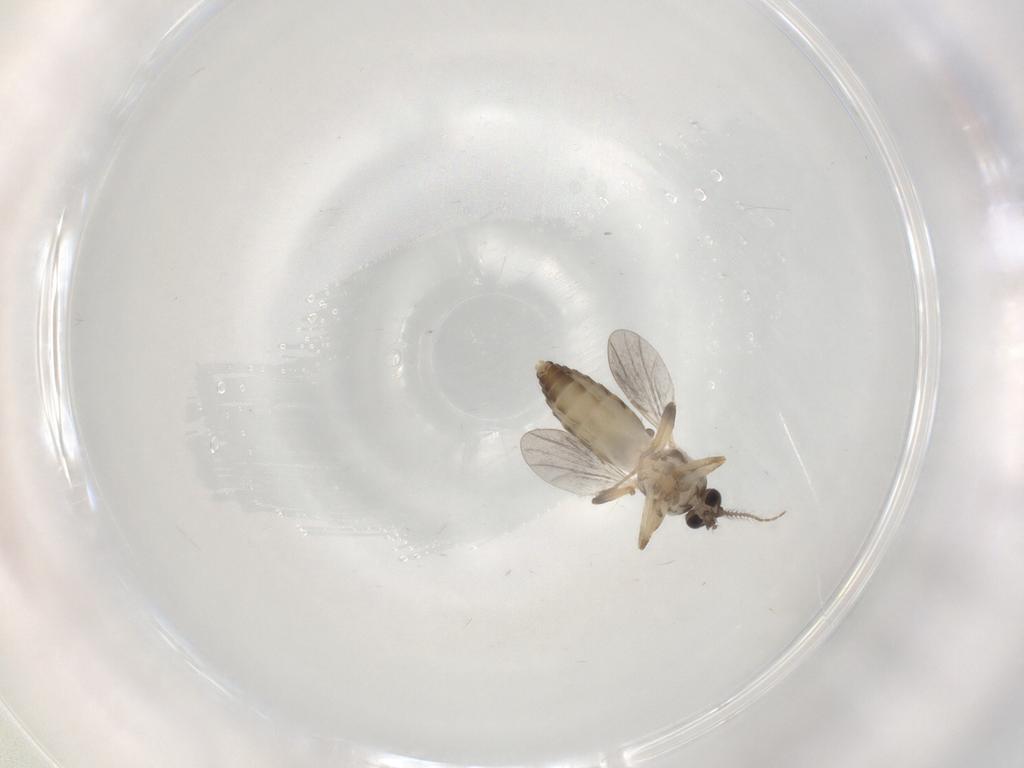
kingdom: Animalia
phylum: Arthropoda
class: Insecta
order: Diptera
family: Ceratopogonidae
